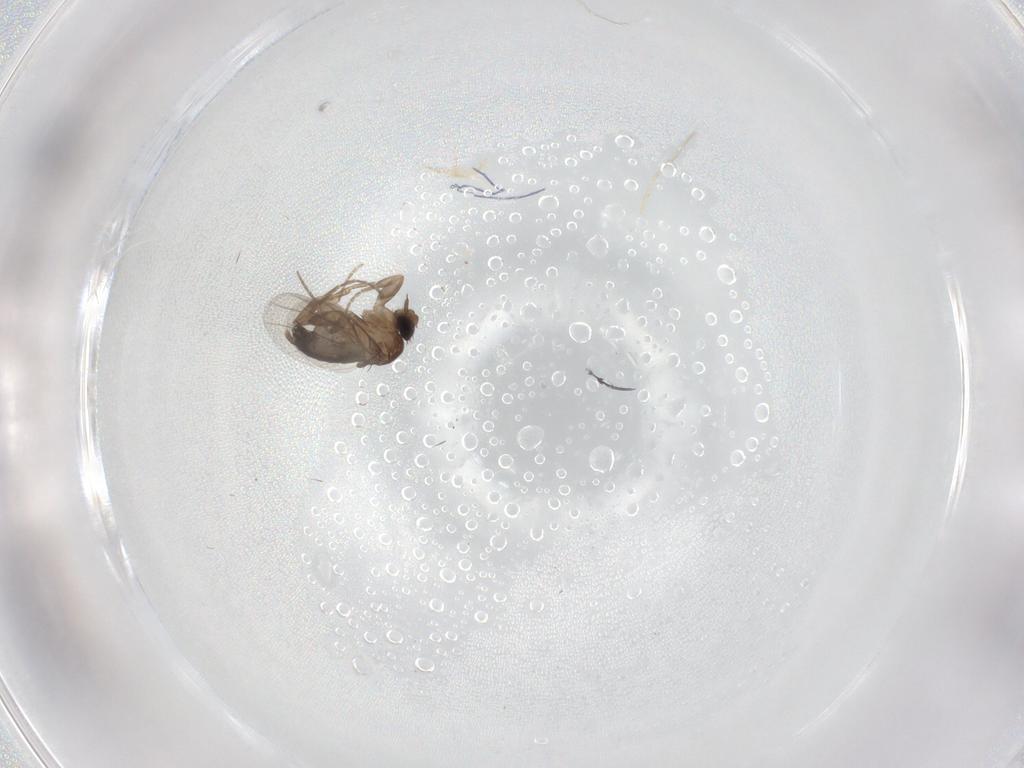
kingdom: Animalia
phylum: Arthropoda
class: Insecta
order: Diptera
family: Phoridae
